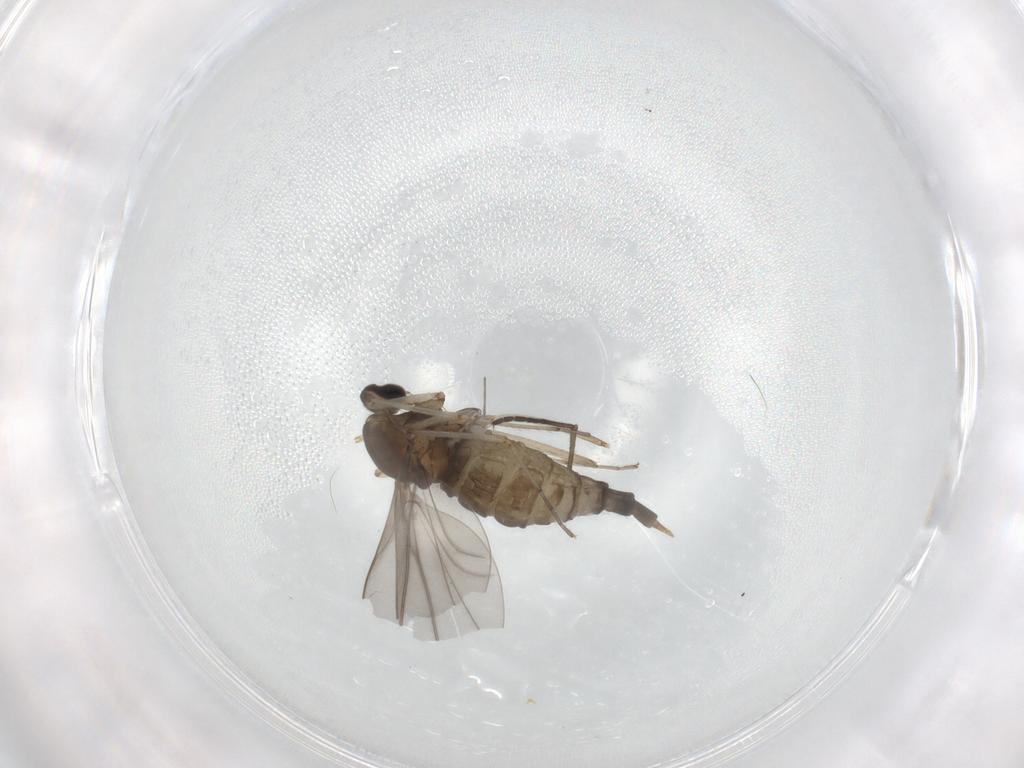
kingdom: Animalia
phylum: Arthropoda
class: Insecta
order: Diptera
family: Cecidomyiidae
